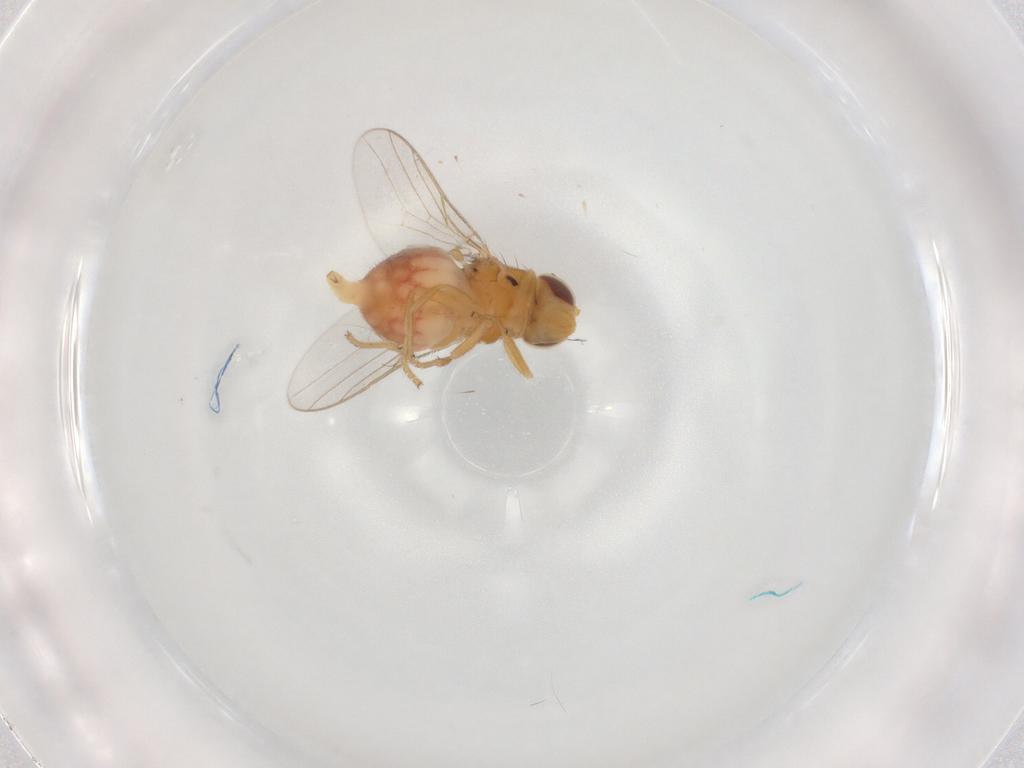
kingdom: Animalia
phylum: Arthropoda
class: Insecta
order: Diptera
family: Chloropidae
